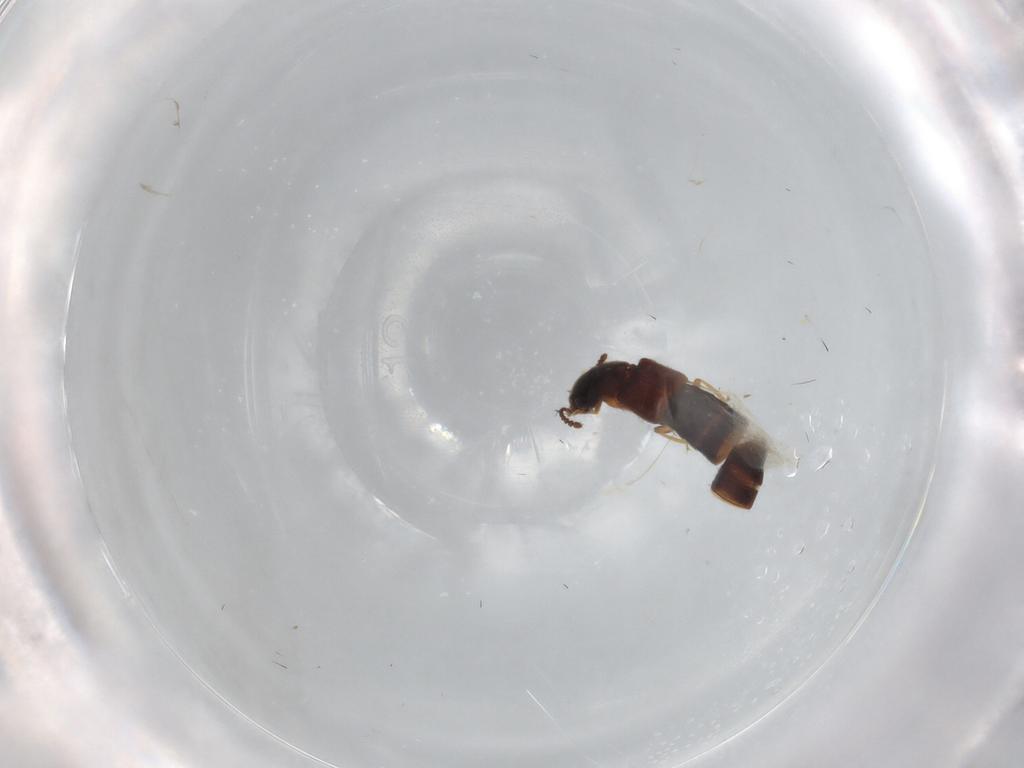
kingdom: Animalia
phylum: Arthropoda
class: Insecta
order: Coleoptera
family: Staphylinidae
